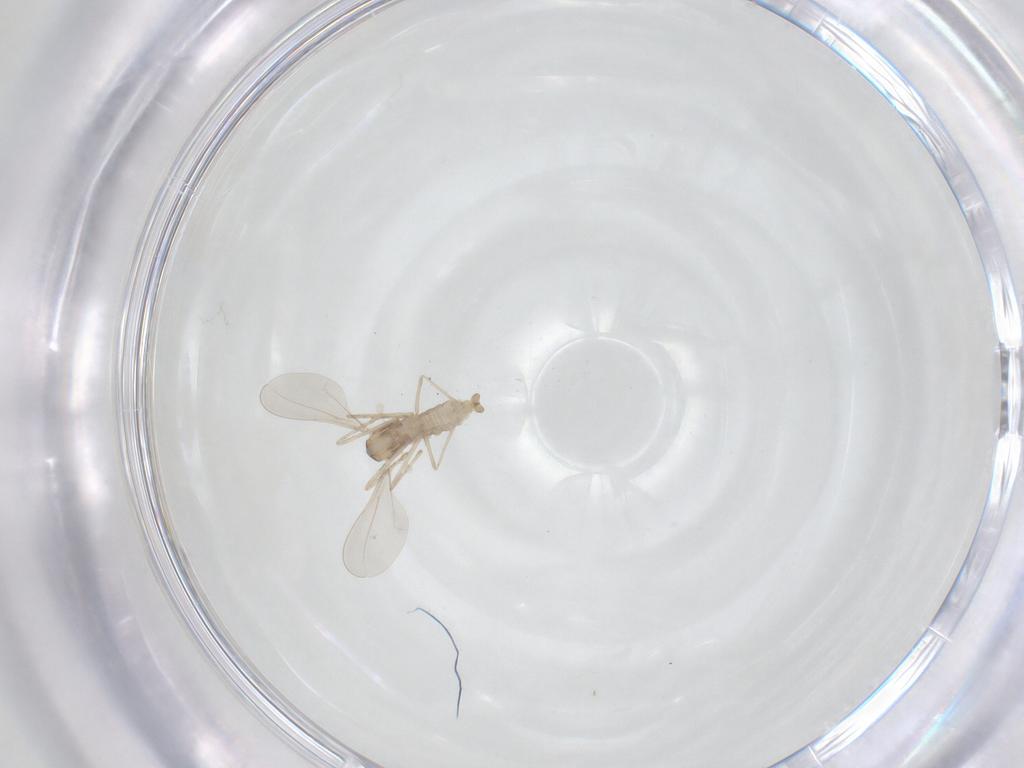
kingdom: Animalia
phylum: Arthropoda
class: Insecta
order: Diptera
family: Cecidomyiidae
